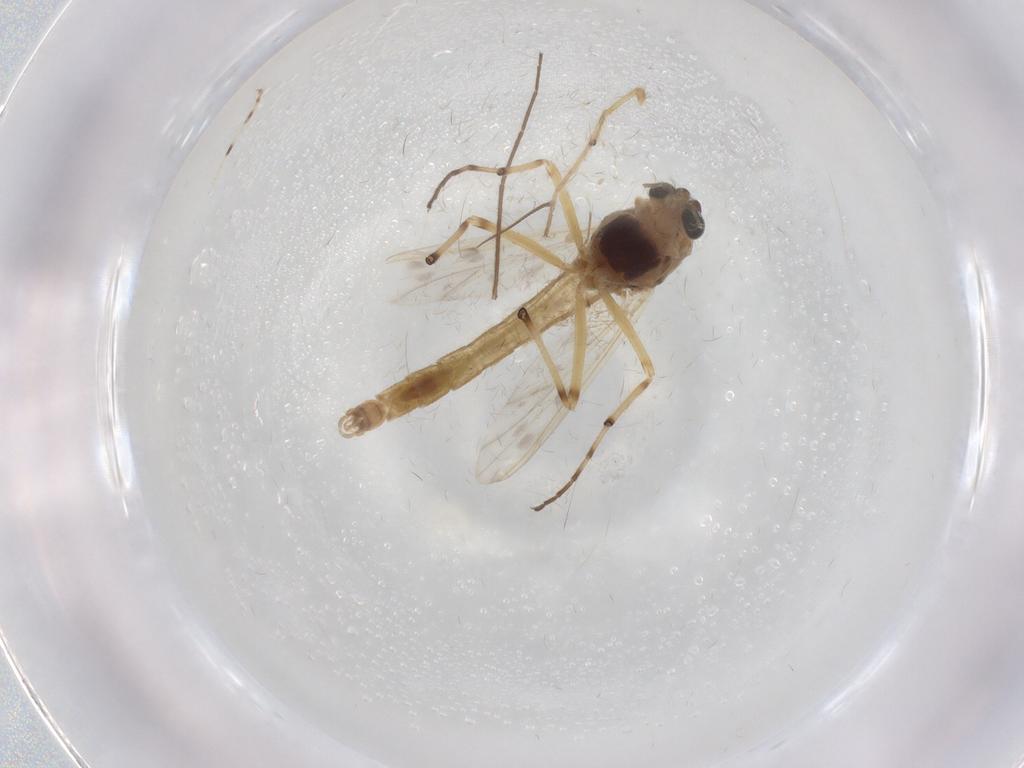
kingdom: Animalia
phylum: Arthropoda
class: Insecta
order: Diptera
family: Chironomidae
